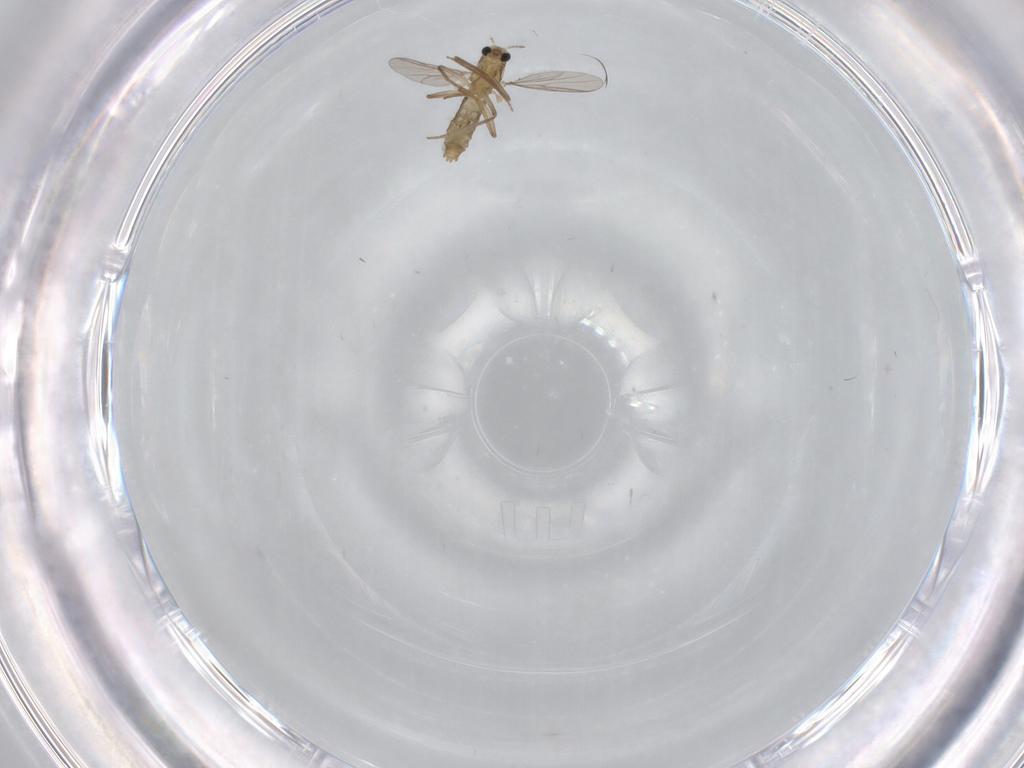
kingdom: Animalia
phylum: Arthropoda
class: Insecta
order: Diptera
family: Chironomidae
